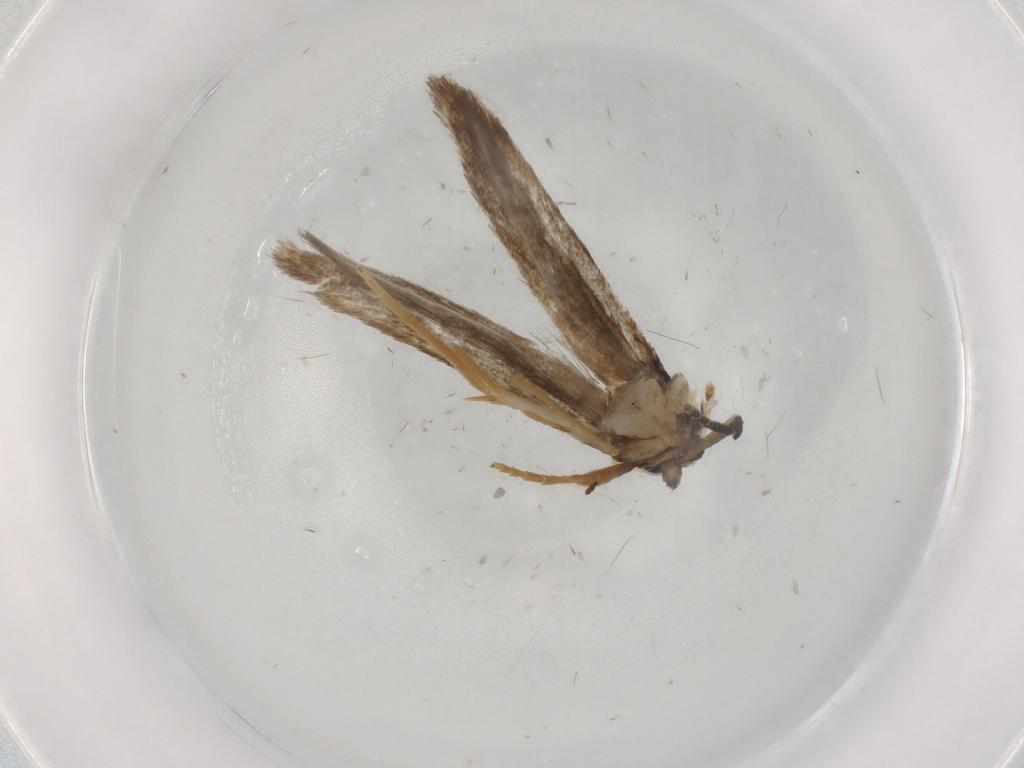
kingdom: Animalia
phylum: Arthropoda
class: Insecta
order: Lepidoptera
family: Coleophoridae
